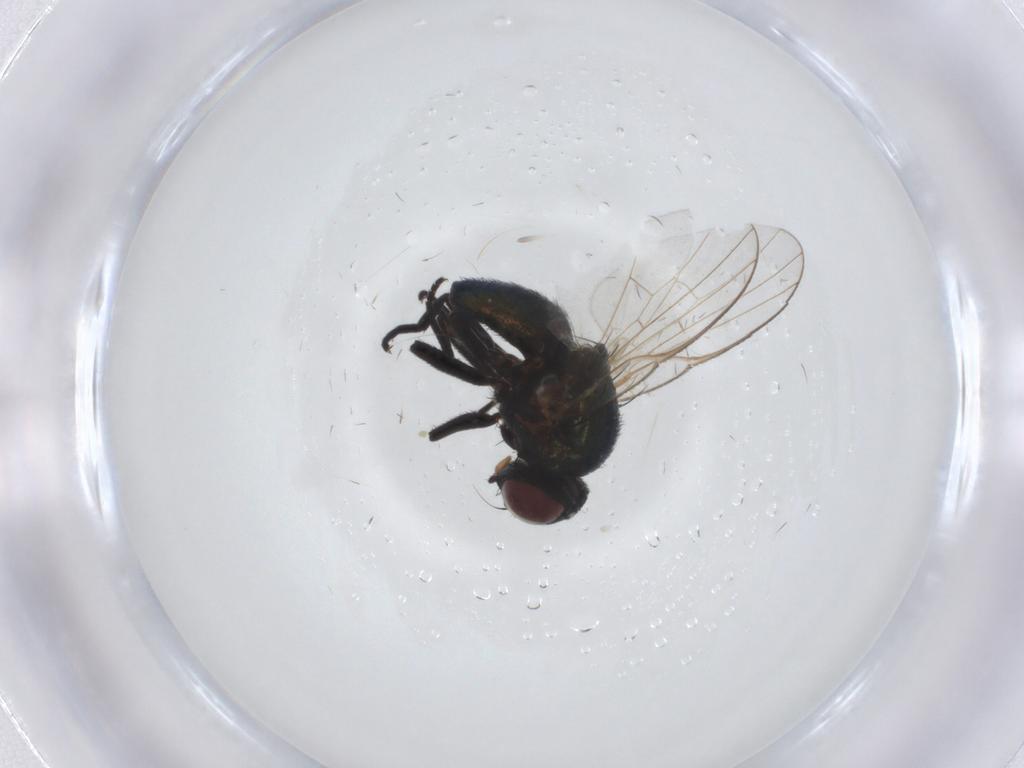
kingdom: Animalia
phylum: Arthropoda
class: Insecta
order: Diptera
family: Agromyzidae
